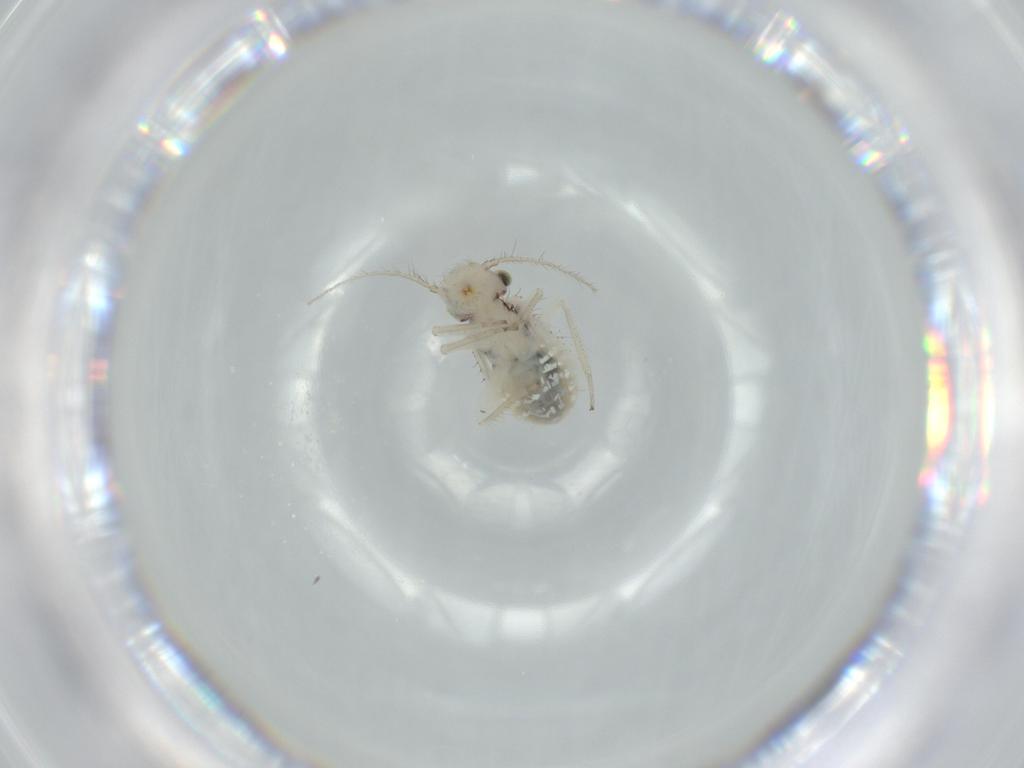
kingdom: Animalia
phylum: Arthropoda
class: Insecta
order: Psocodea
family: Pseudocaeciliidae
